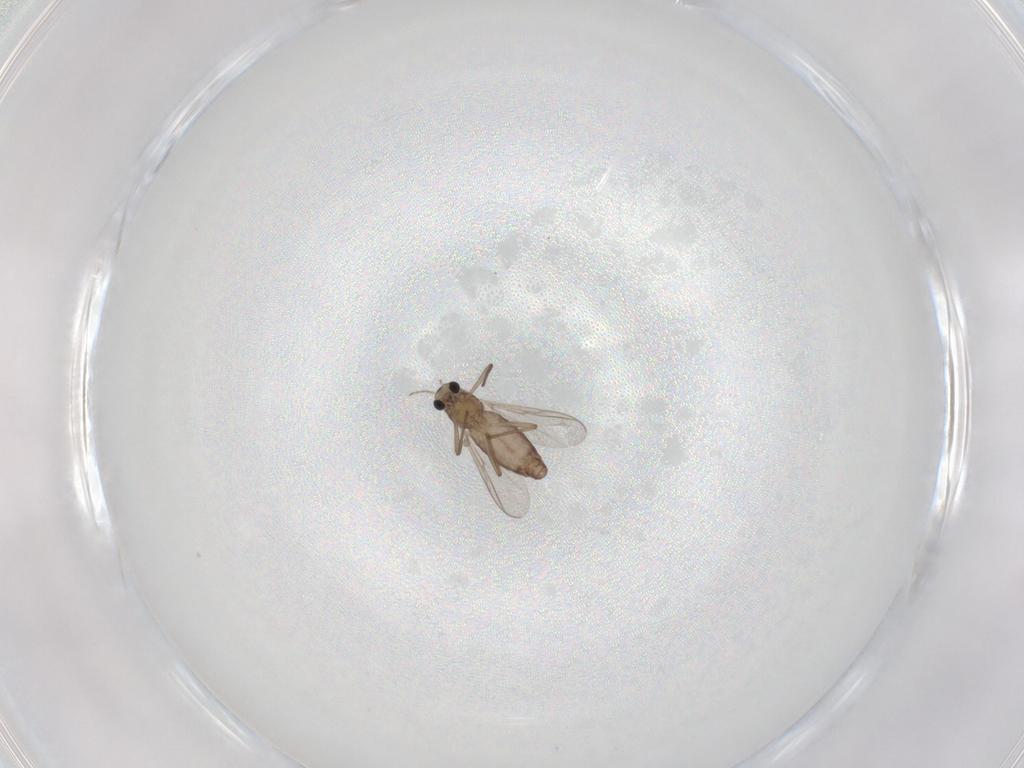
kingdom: Animalia
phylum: Arthropoda
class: Insecta
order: Diptera
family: Chironomidae
